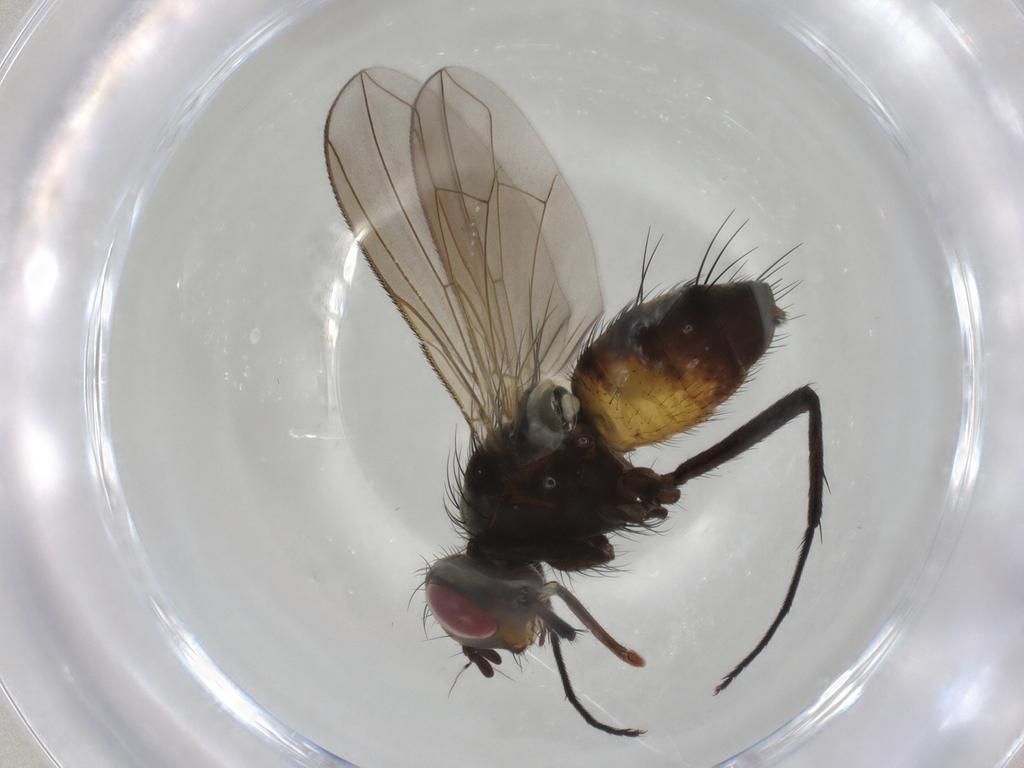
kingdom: Animalia
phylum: Arthropoda
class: Insecta
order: Diptera
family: Tachinidae
